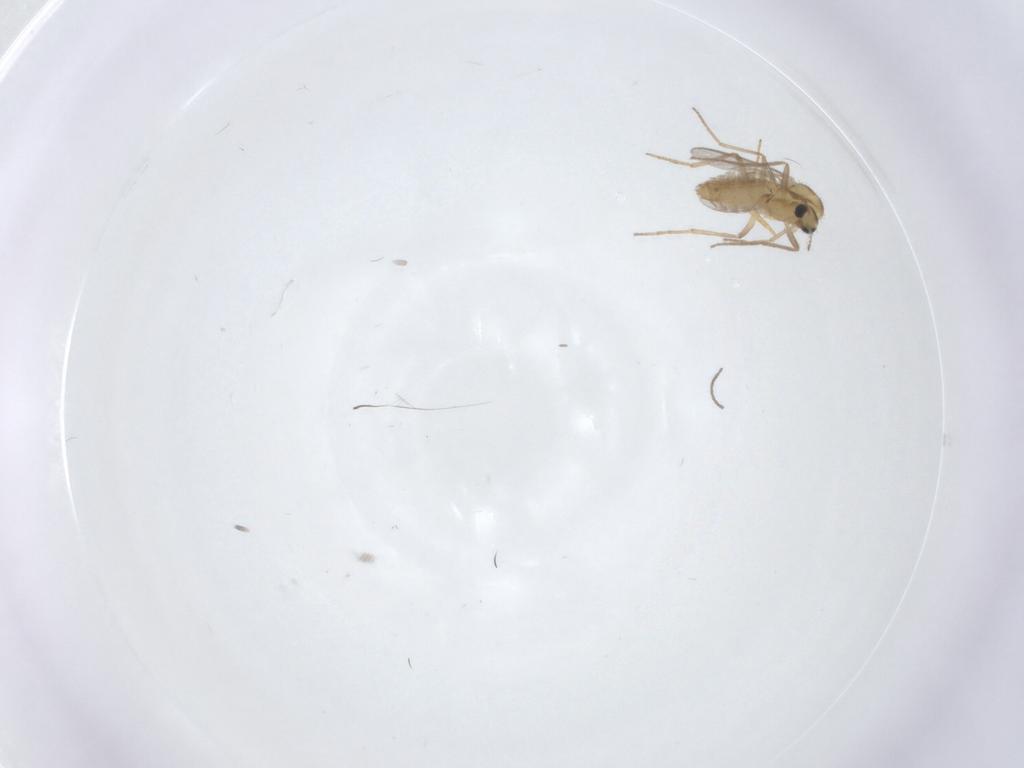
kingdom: Animalia
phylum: Arthropoda
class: Insecta
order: Diptera
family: Chironomidae
